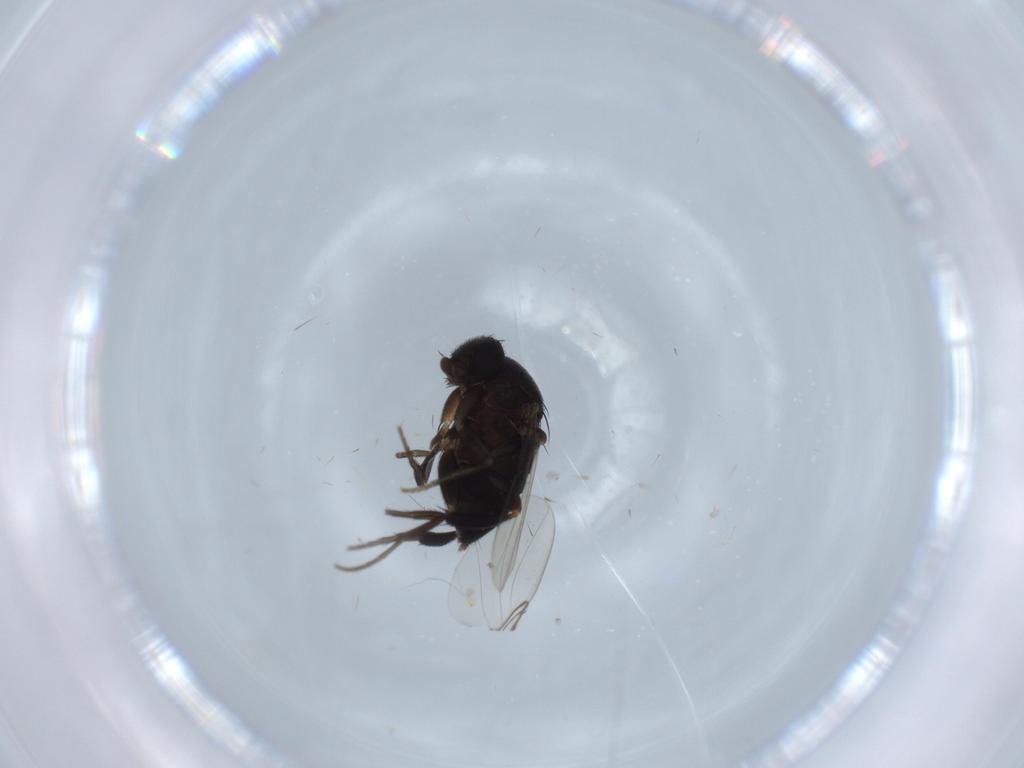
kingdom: Animalia
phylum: Arthropoda
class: Insecta
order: Diptera
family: Phoridae
